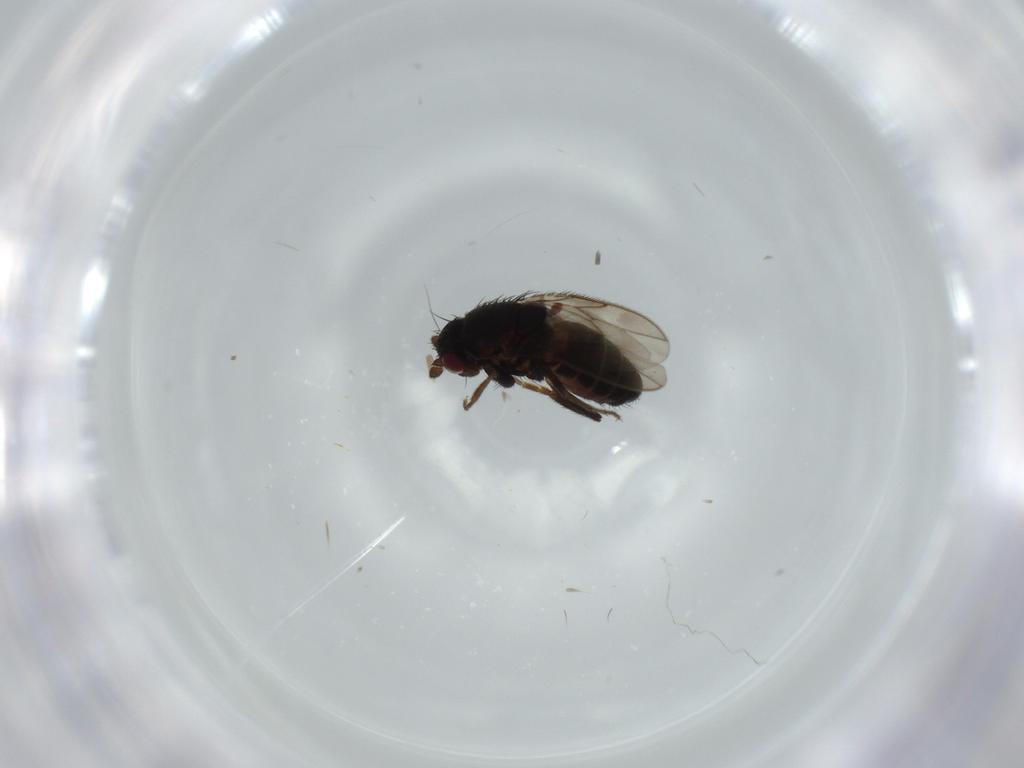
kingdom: Animalia
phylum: Arthropoda
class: Insecta
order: Diptera
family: Sphaeroceridae
